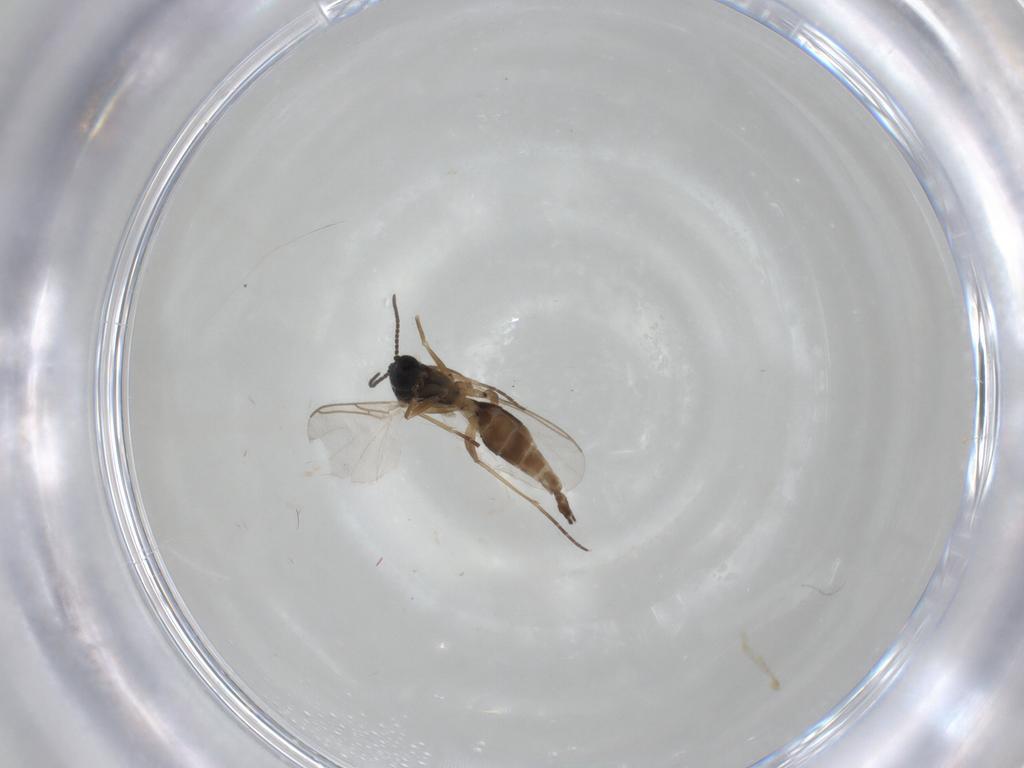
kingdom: Animalia
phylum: Arthropoda
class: Insecta
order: Diptera
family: Sciaridae
